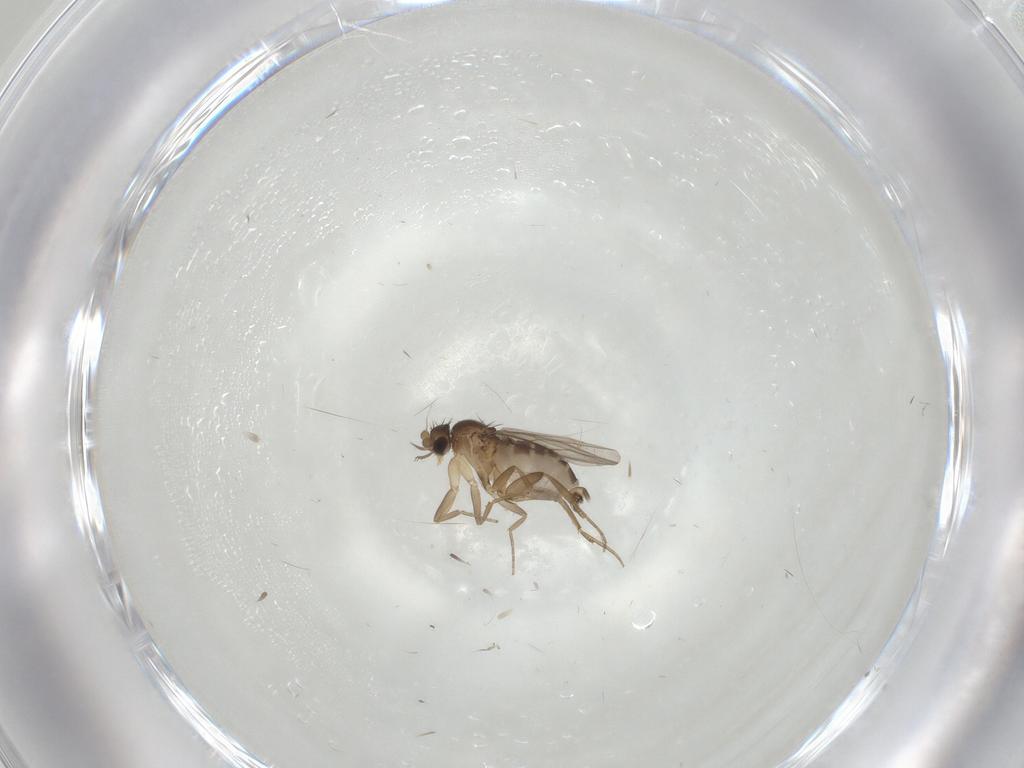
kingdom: Animalia
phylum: Arthropoda
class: Insecta
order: Diptera
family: Phoridae
